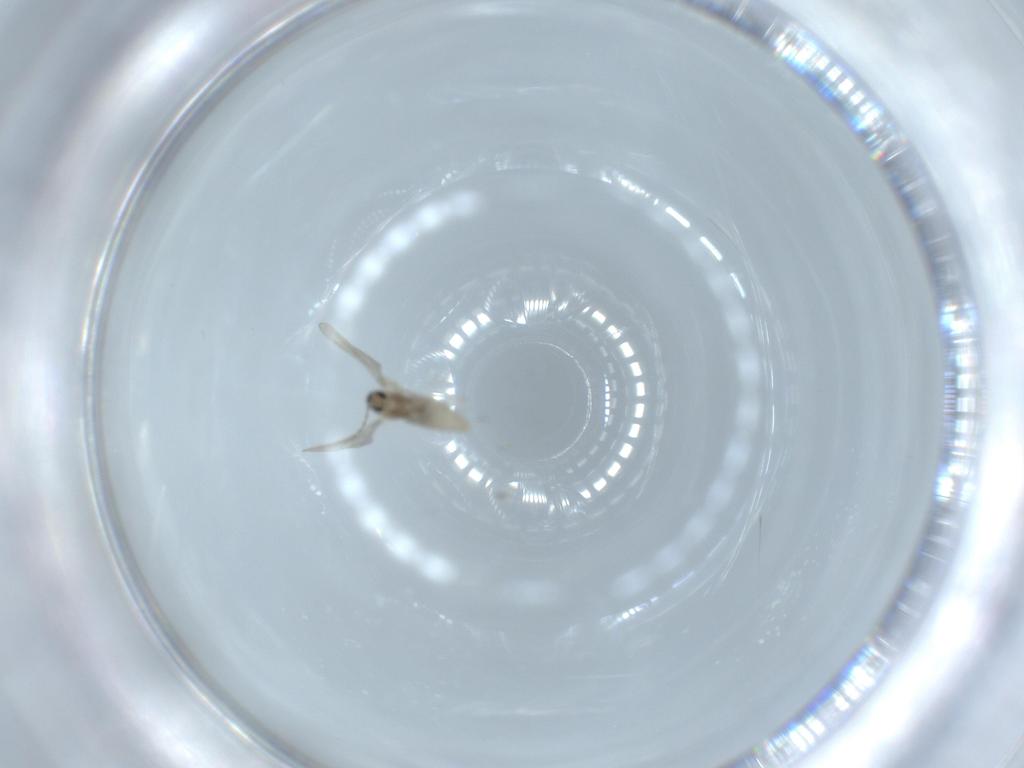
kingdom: Animalia
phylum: Arthropoda
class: Insecta
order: Diptera
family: Cecidomyiidae
